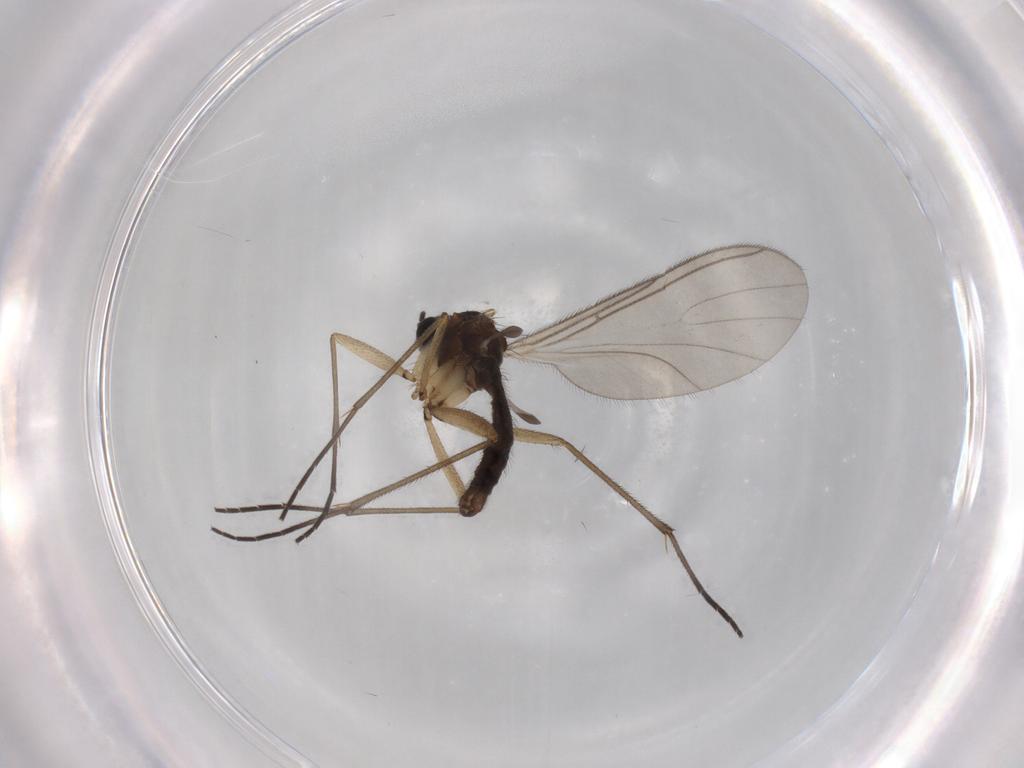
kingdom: Animalia
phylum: Arthropoda
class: Insecta
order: Diptera
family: Sciaridae
